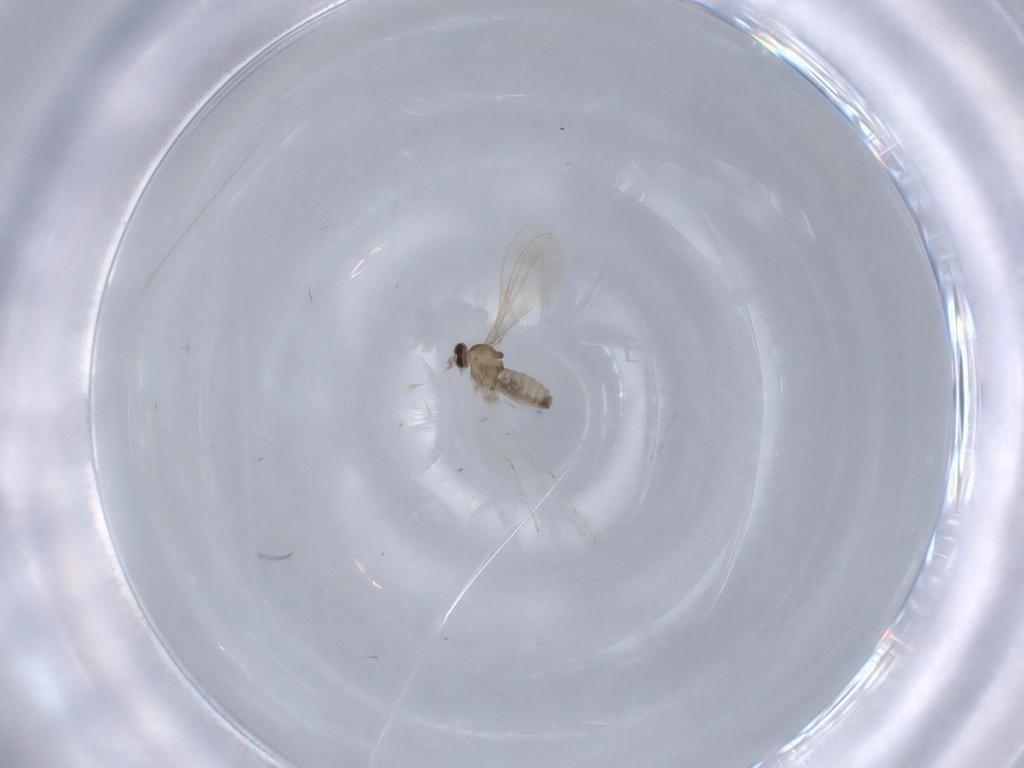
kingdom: Animalia
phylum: Arthropoda
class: Insecta
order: Diptera
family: Cecidomyiidae
